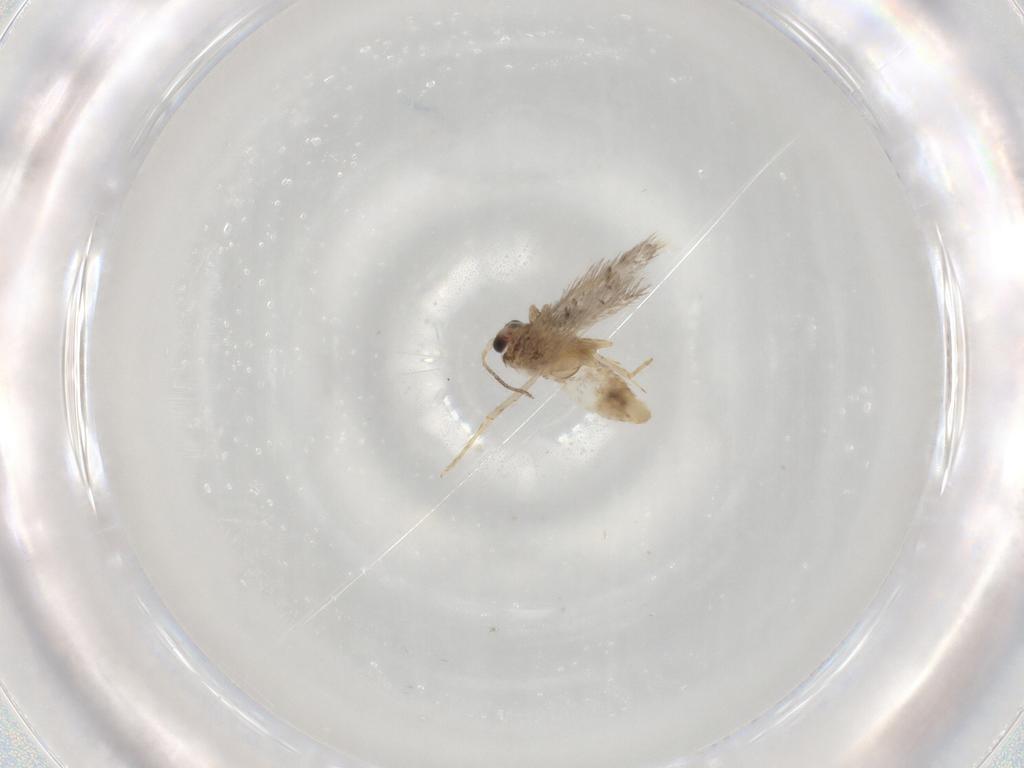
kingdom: Animalia
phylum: Arthropoda
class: Insecta
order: Lepidoptera
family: Nepticulidae
